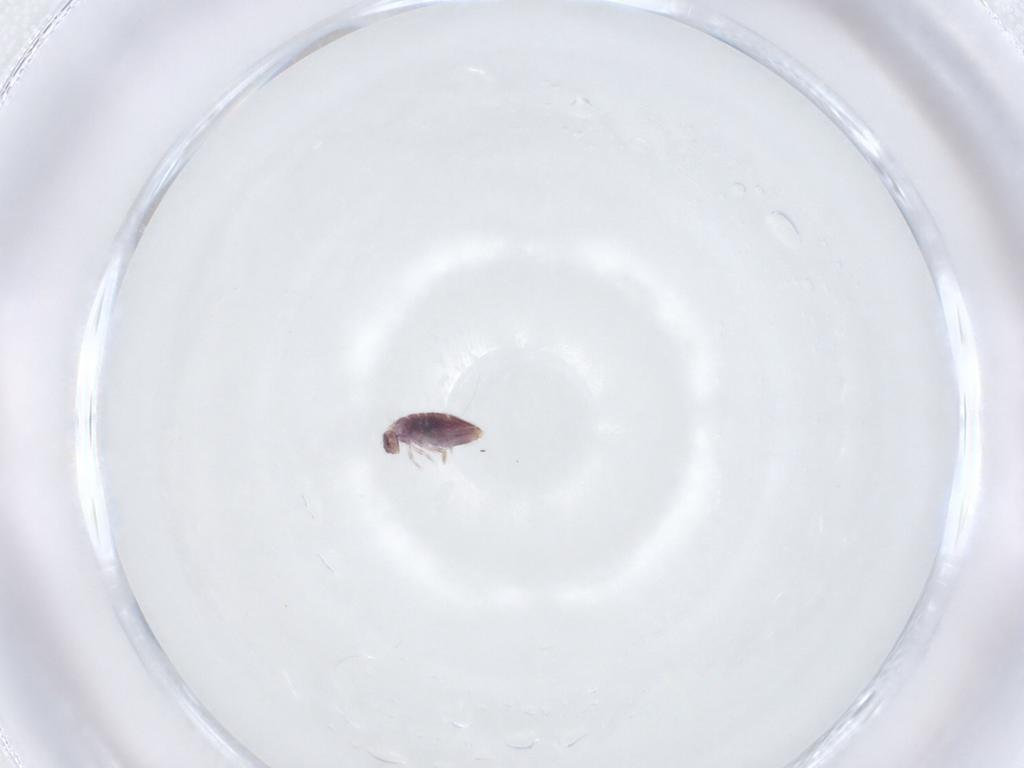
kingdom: Animalia
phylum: Arthropoda
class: Collembola
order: Entomobryomorpha
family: Entomobryidae
